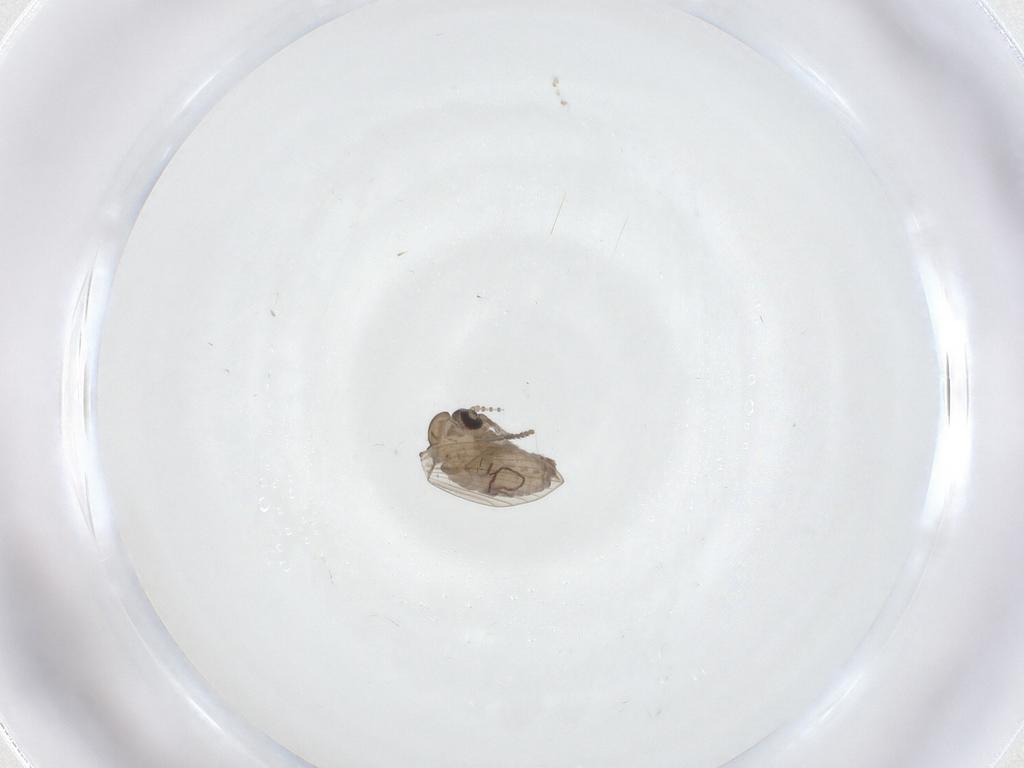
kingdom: Animalia
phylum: Arthropoda
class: Insecta
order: Diptera
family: Psychodidae
